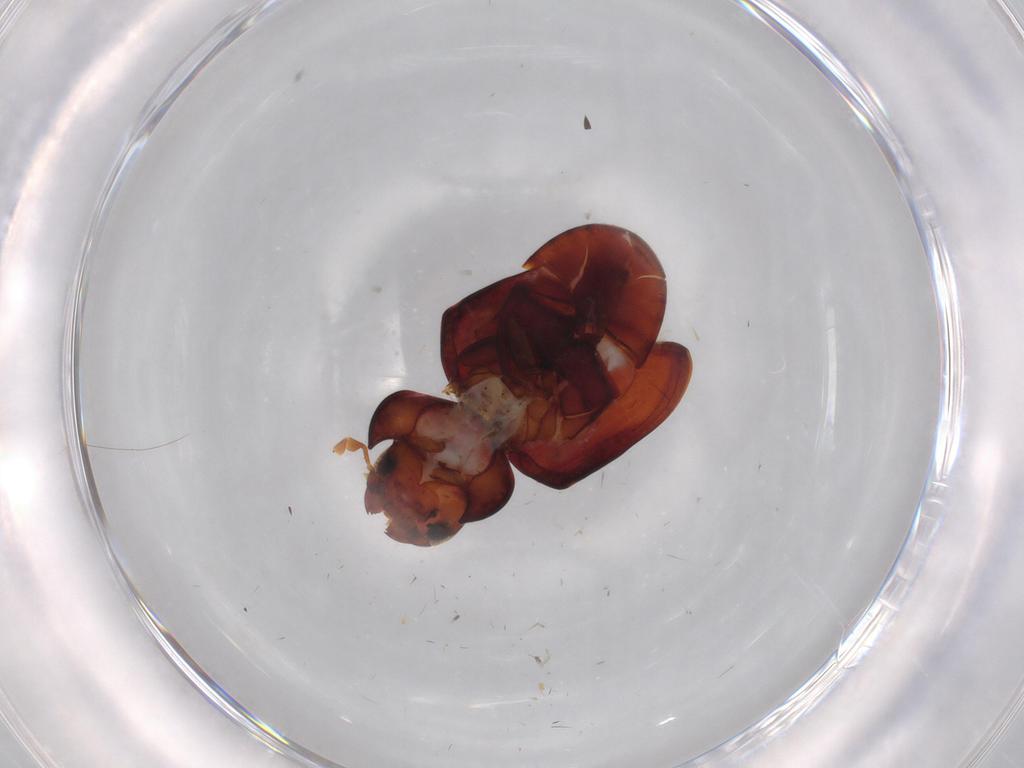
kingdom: Animalia
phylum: Arthropoda
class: Insecta
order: Coleoptera
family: Ptinidae
